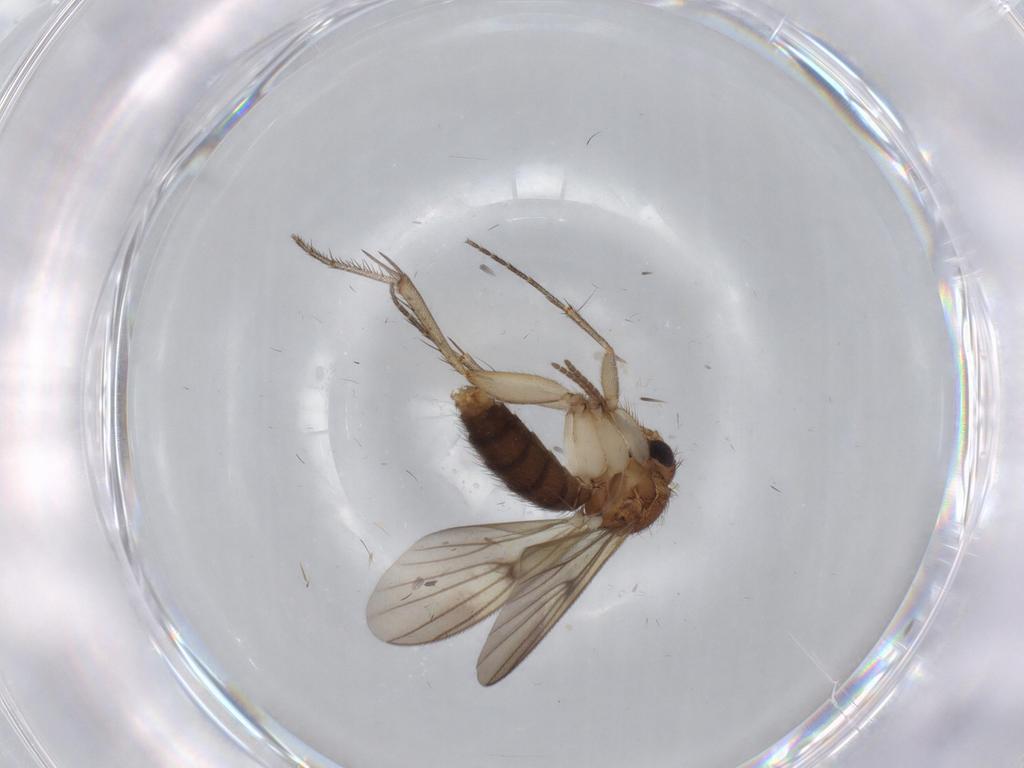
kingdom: Animalia
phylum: Arthropoda
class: Insecta
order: Diptera
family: Phoridae
